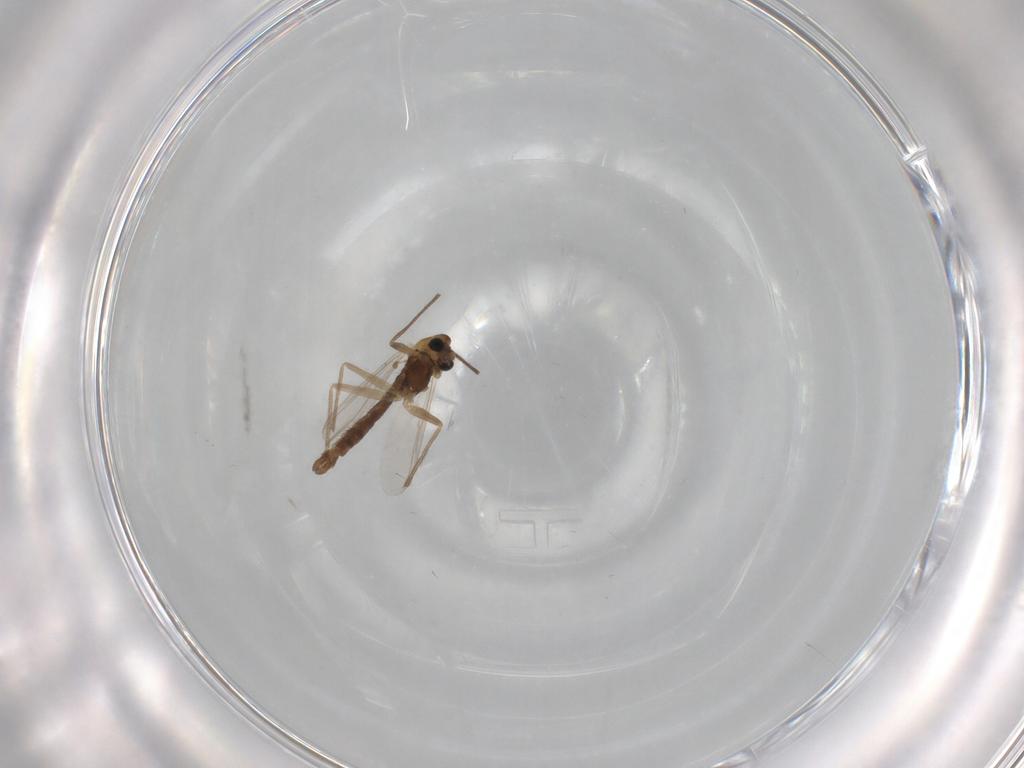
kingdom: Animalia
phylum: Arthropoda
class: Insecta
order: Diptera
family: Chironomidae
